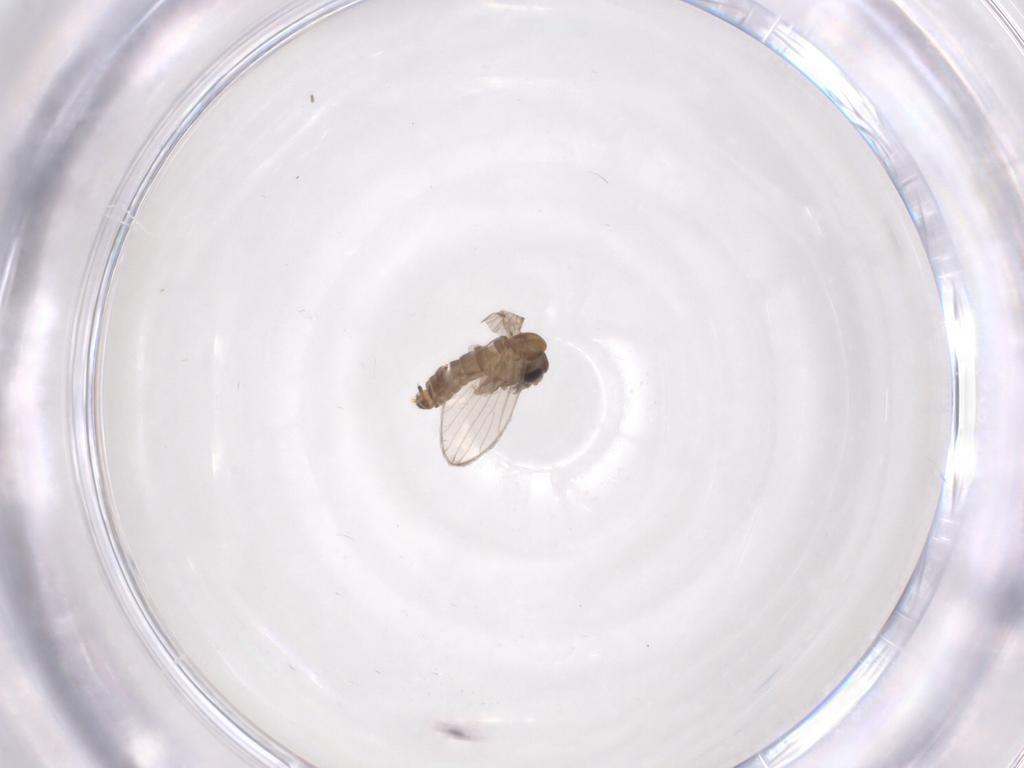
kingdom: Animalia
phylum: Arthropoda
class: Insecta
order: Diptera
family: Psychodidae
